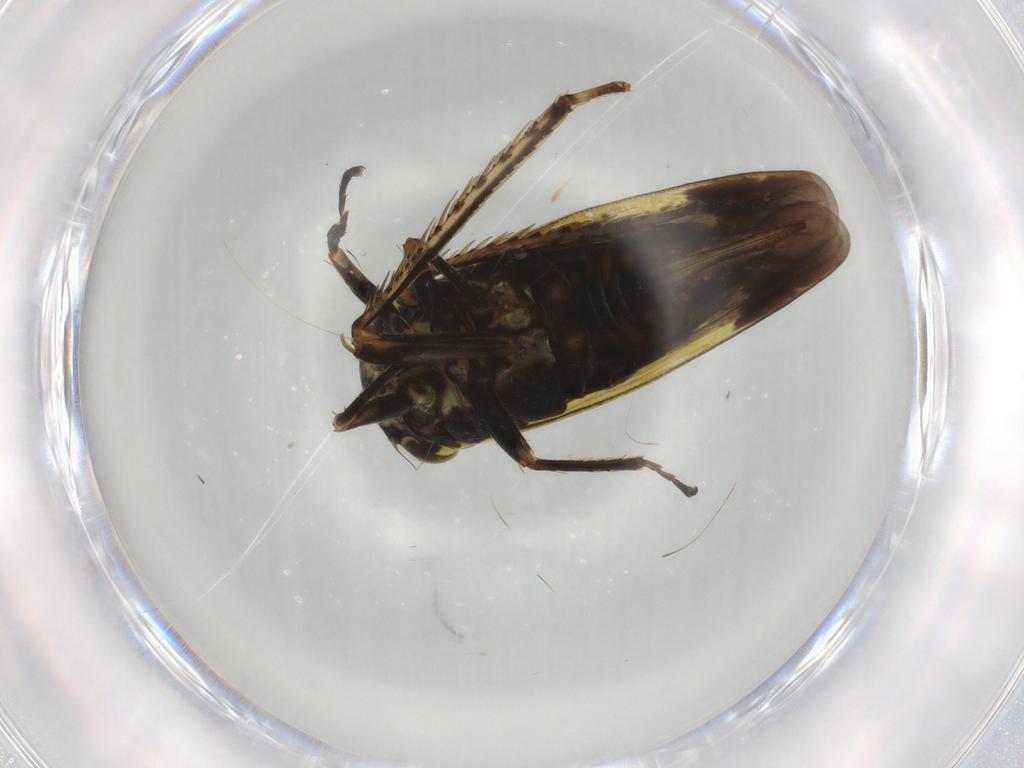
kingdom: Animalia
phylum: Arthropoda
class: Insecta
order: Hemiptera
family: Cicadellidae
